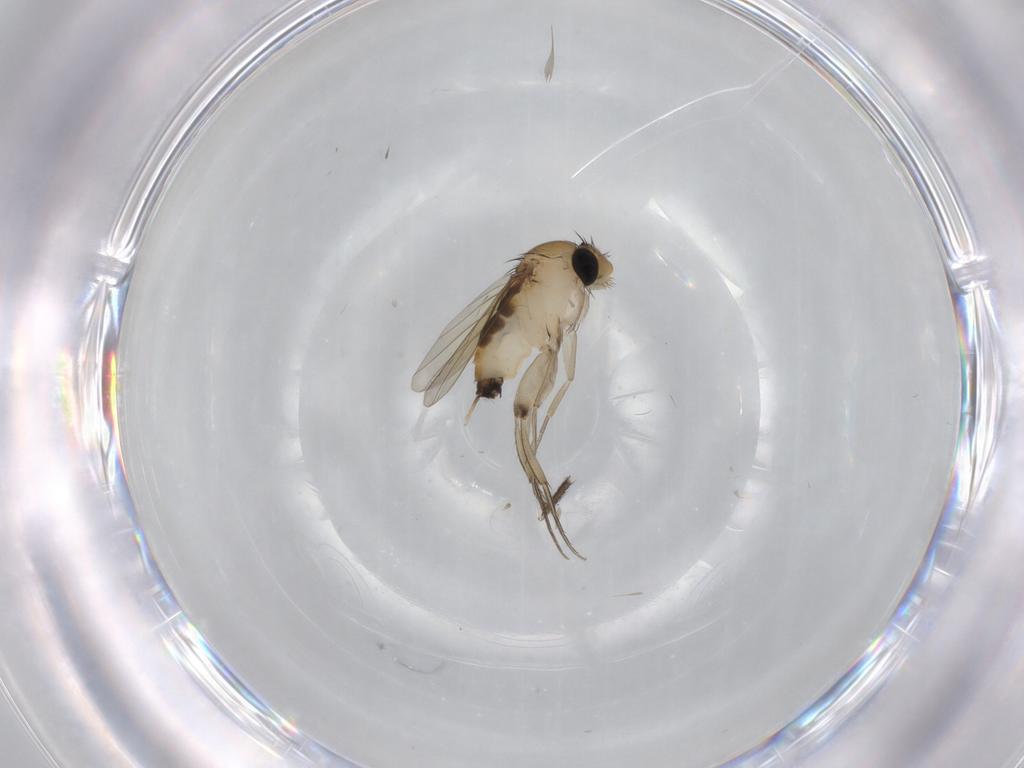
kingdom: Animalia
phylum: Arthropoda
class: Insecta
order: Diptera
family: Phoridae
